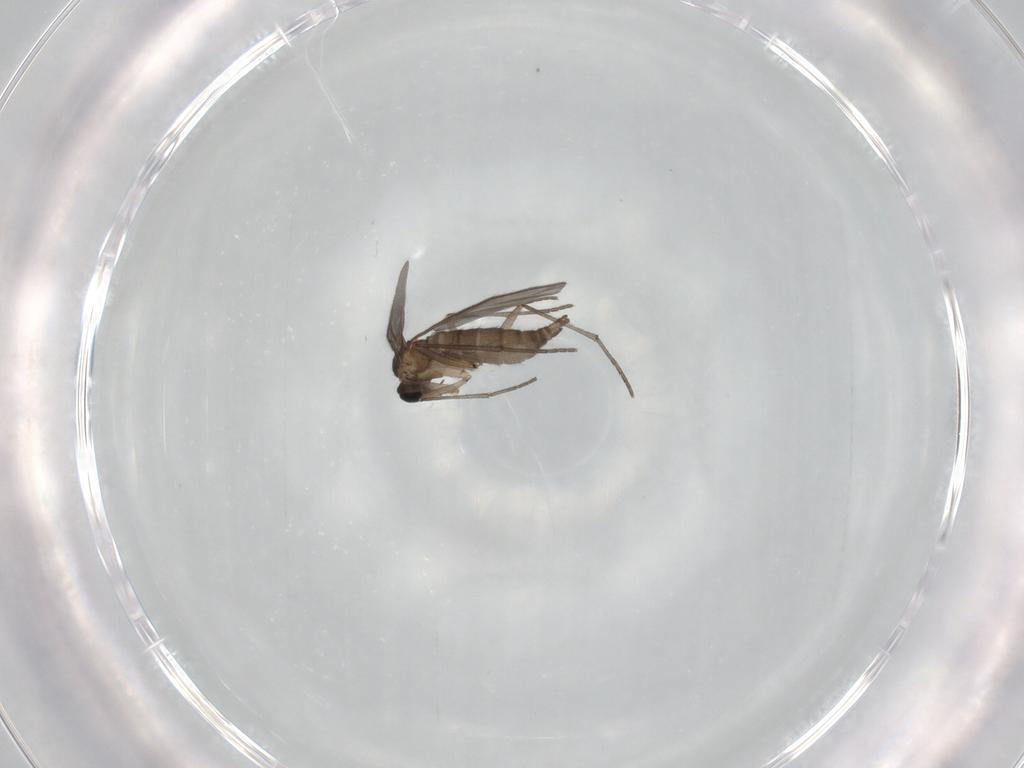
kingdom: Animalia
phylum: Arthropoda
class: Insecta
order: Diptera
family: Sciaridae
